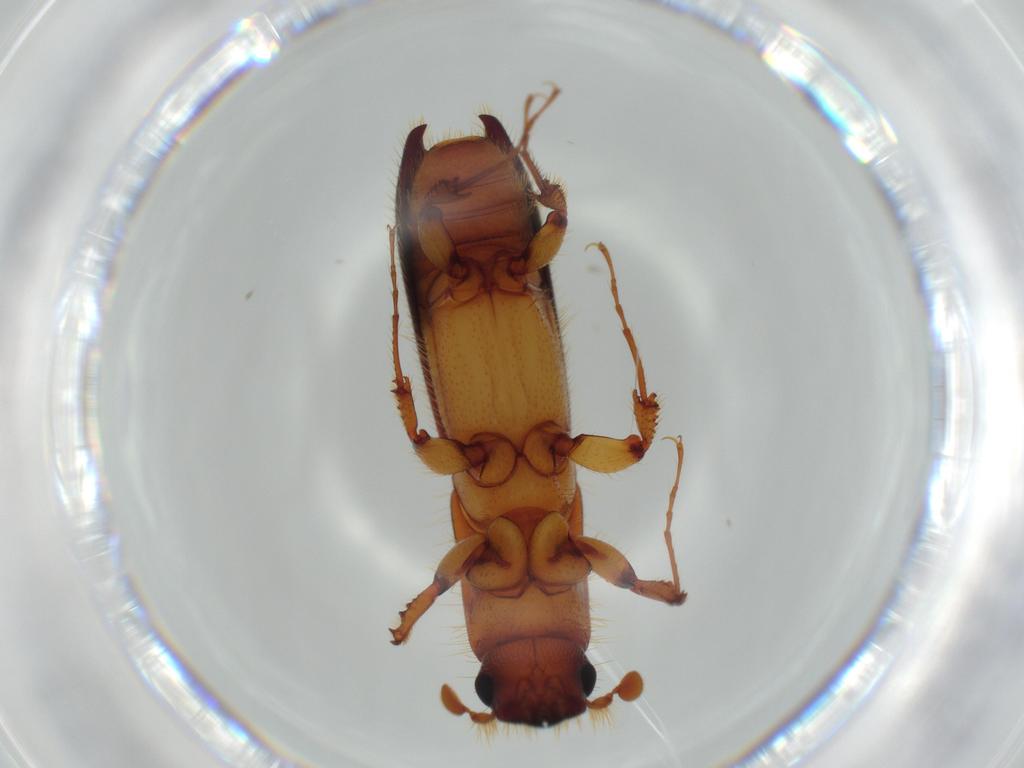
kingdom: Animalia
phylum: Arthropoda
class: Insecta
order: Coleoptera
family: Curculionidae
